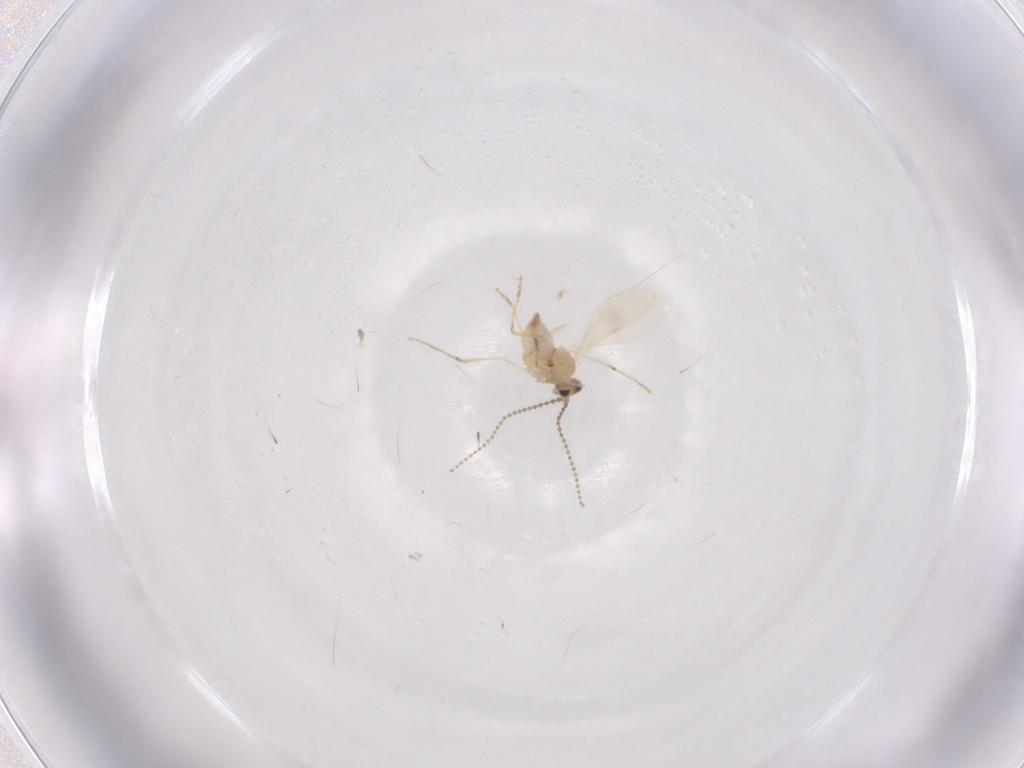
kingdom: Animalia
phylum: Arthropoda
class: Insecta
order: Diptera
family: Cecidomyiidae
